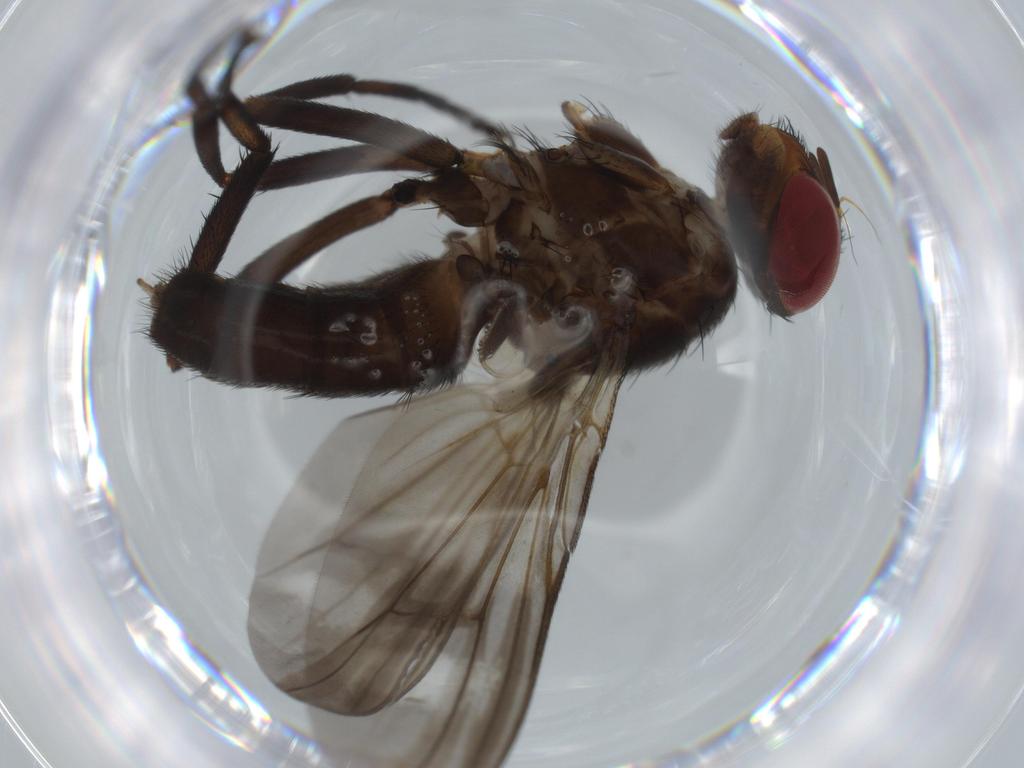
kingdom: Animalia
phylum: Arthropoda
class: Insecta
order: Diptera
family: Calliphoridae
